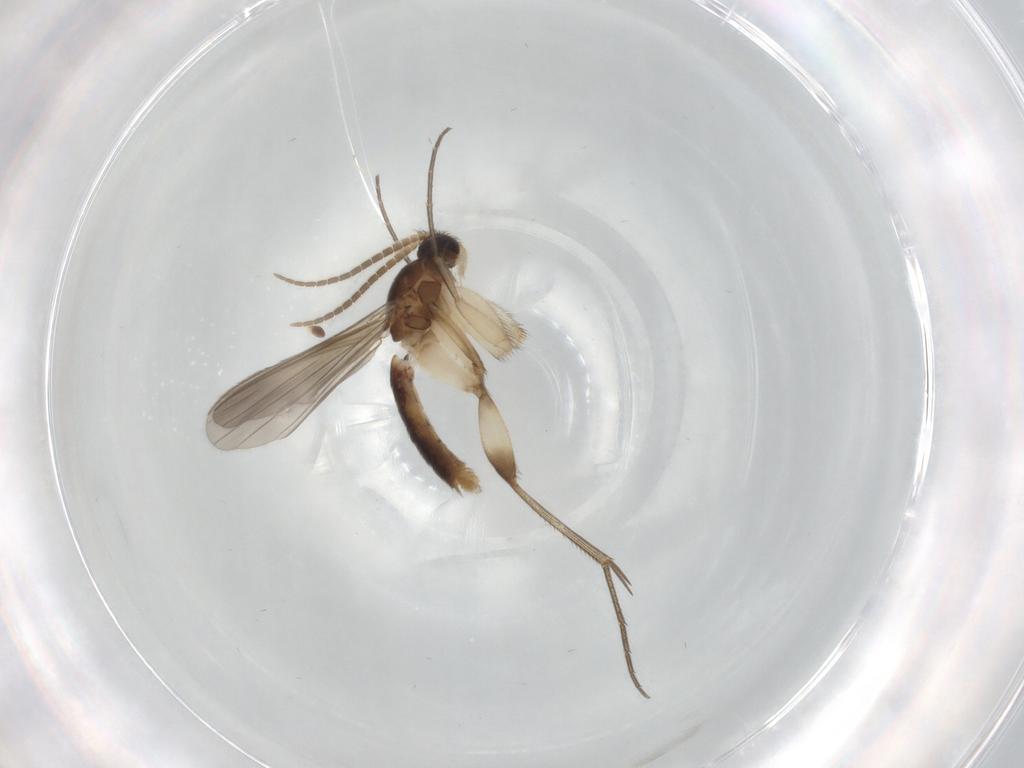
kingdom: Animalia
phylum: Arthropoda
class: Insecta
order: Diptera
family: Mycetophilidae
